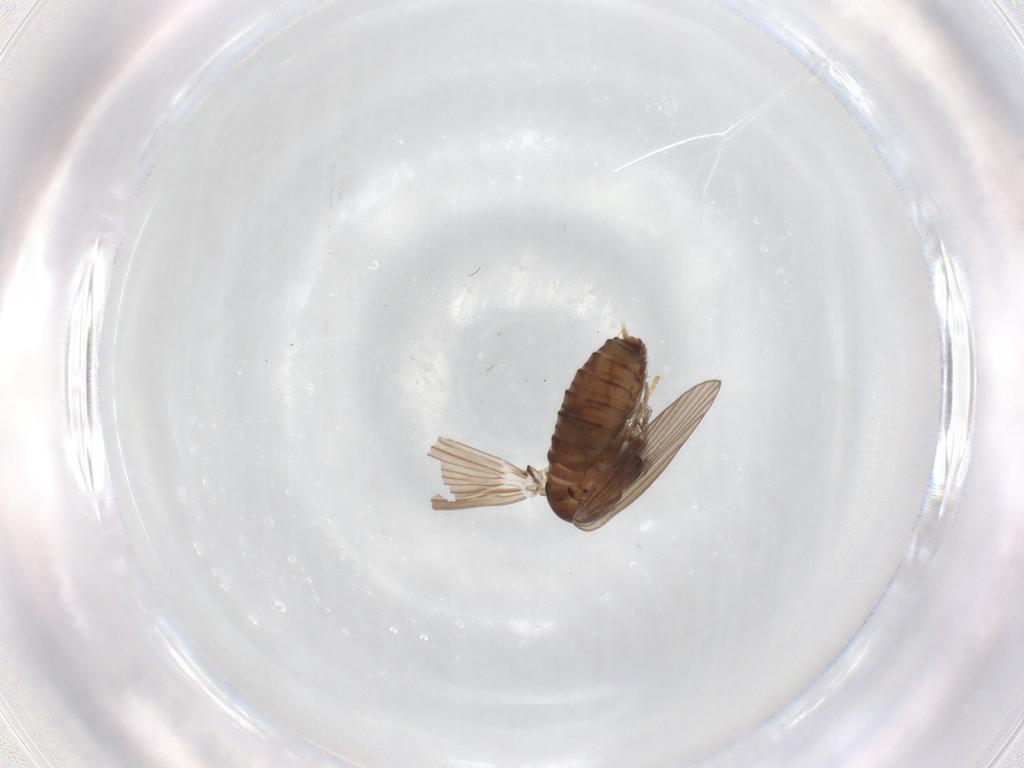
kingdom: Animalia
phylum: Arthropoda
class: Insecta
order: Diptera
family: Psychodidae
